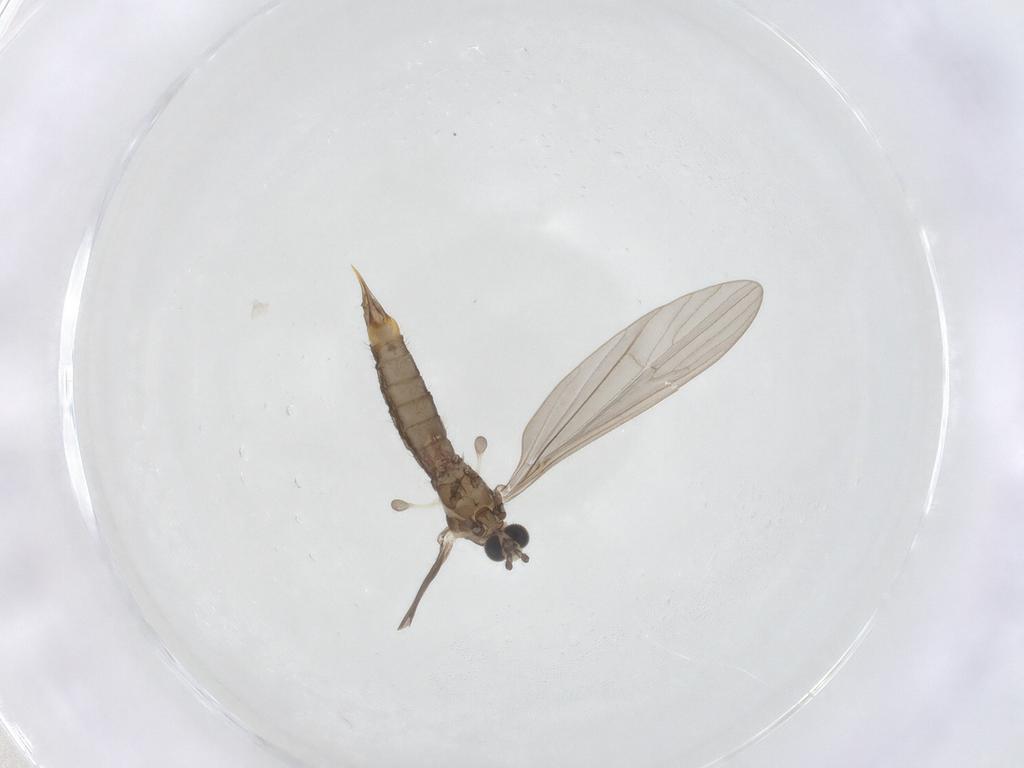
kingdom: Animalia
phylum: Arthropoda
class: Insecta
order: Diptera
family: Limoniidae
